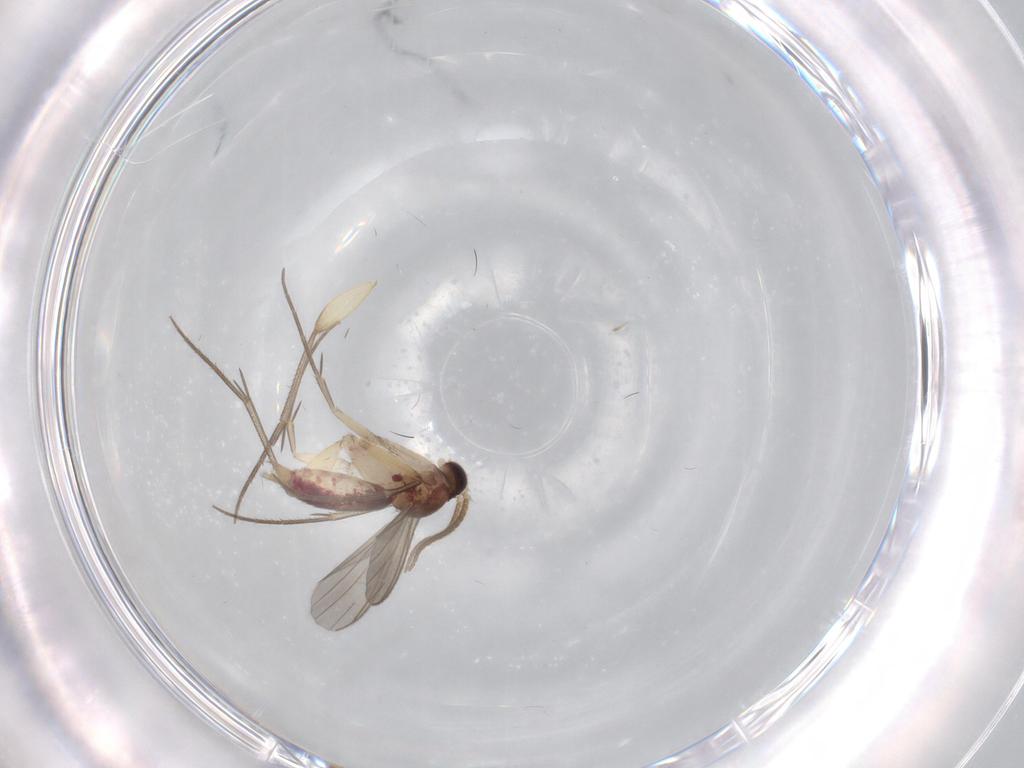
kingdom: Animalia
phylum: Arthropoda
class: Insecta
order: Diptera
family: Mycetophilidae
